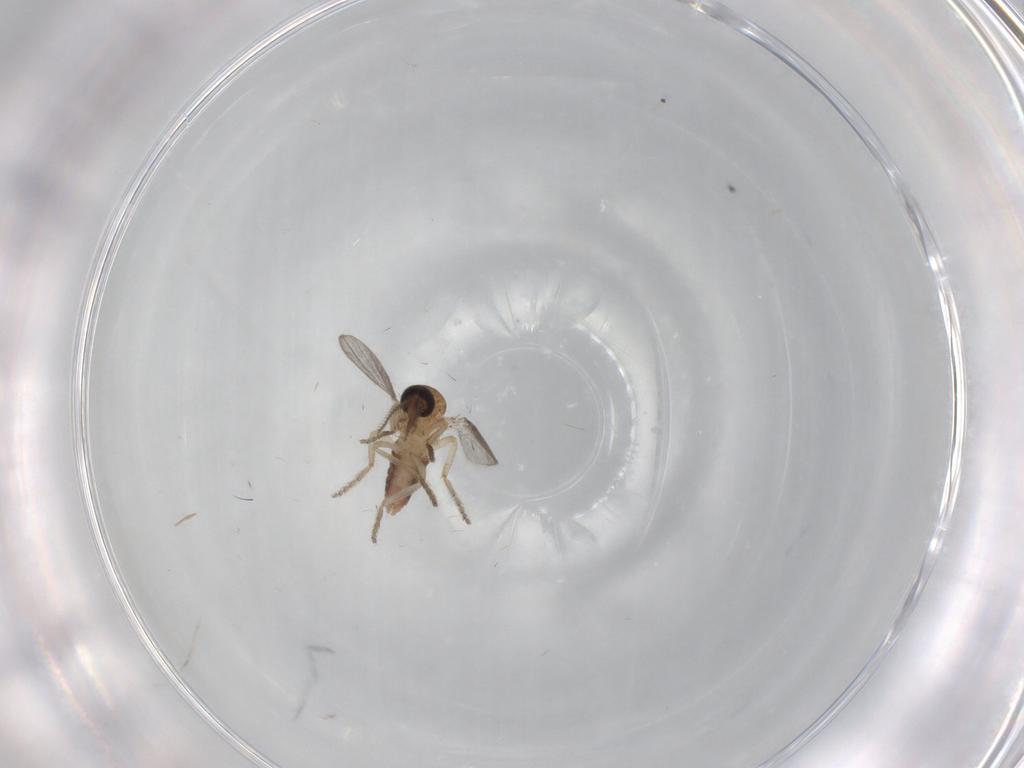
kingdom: Animalia
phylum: Arthropoda
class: Insecta
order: Diptera
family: Ceratopogonidae
